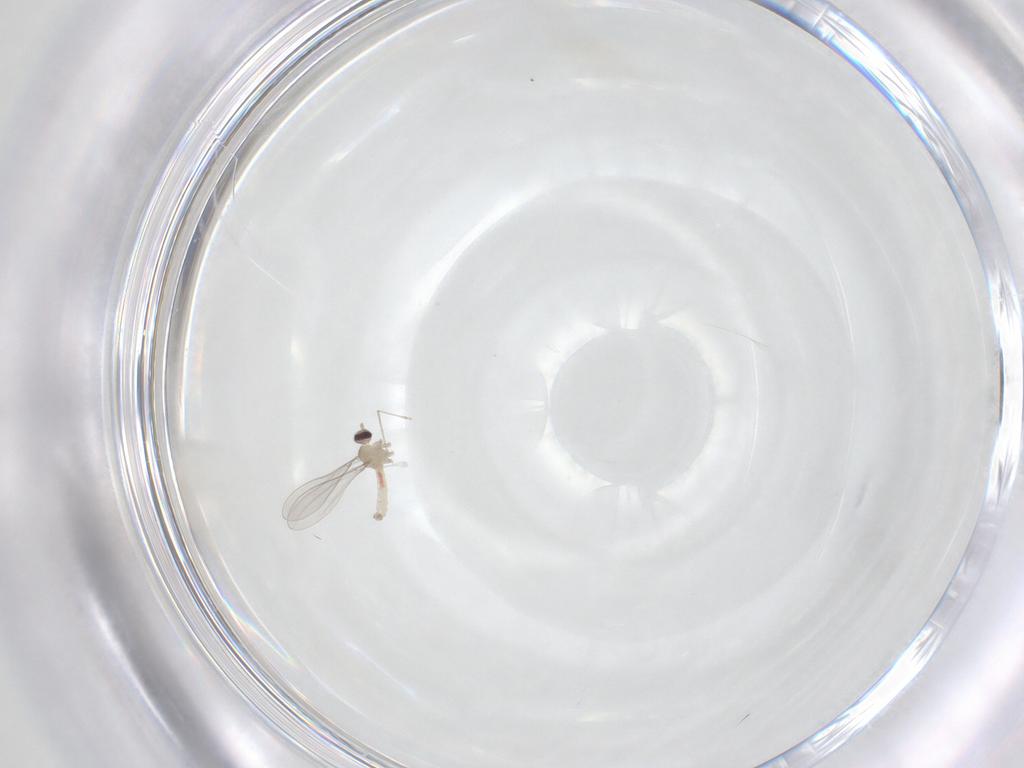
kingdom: Animalia
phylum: Arthropoda
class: Insecta
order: Diptera
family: Cecidomyiidae
